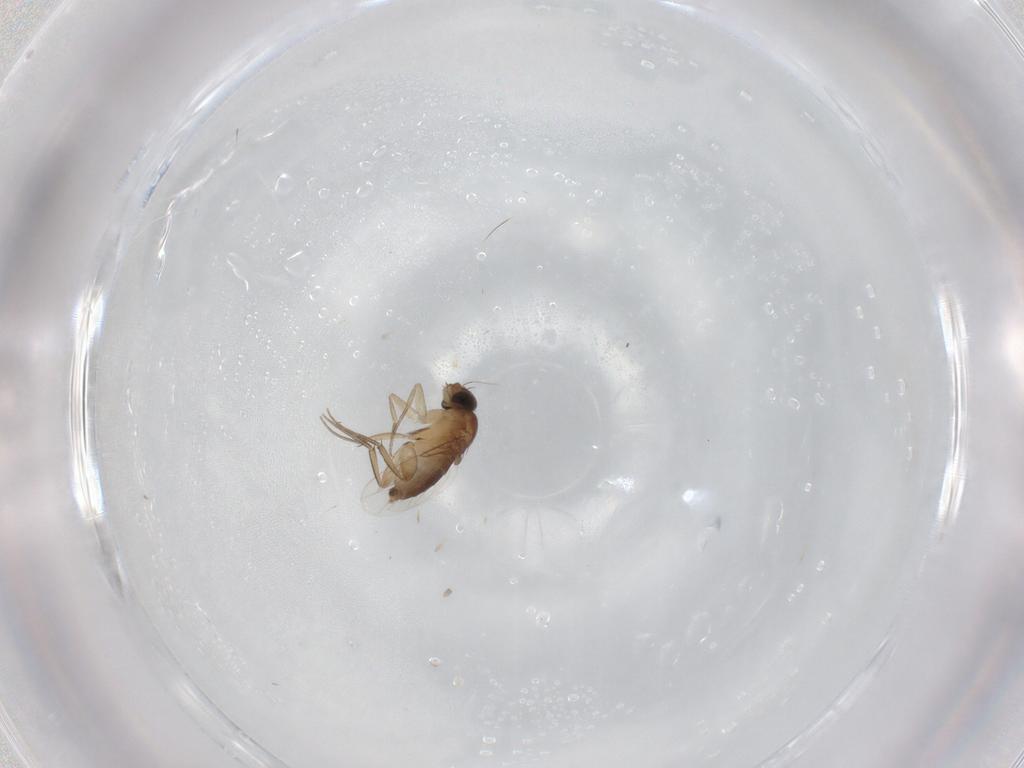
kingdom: Animalia
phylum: Arthropoda
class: Insecta
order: Diptera
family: Phoridae
